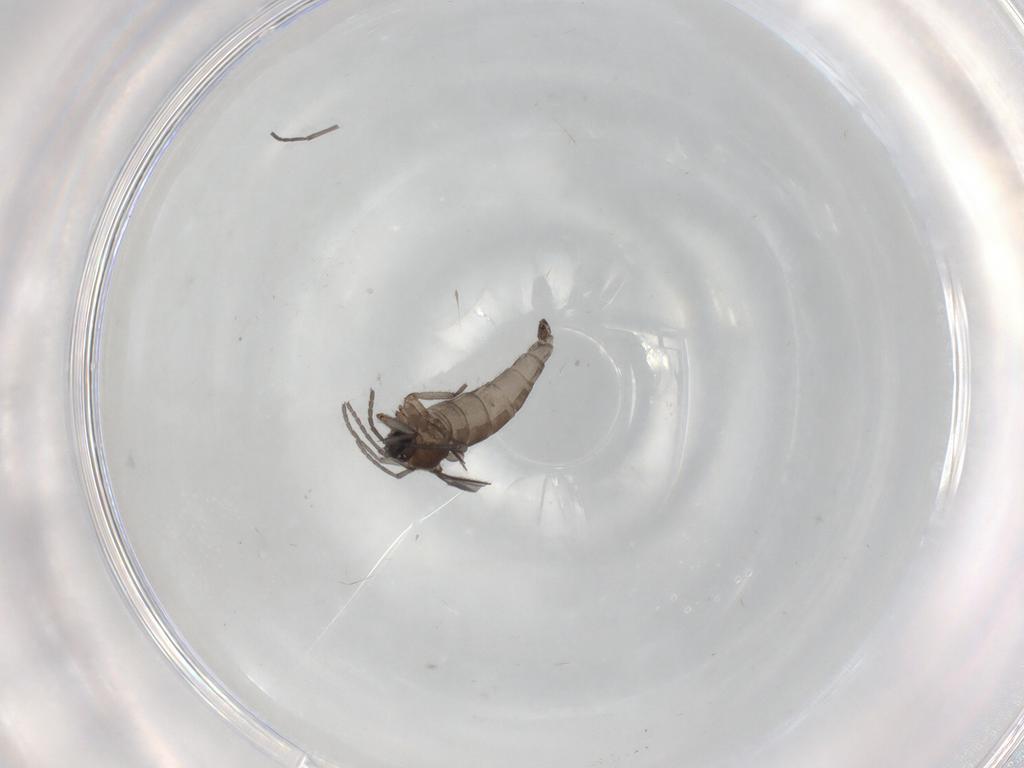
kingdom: Animalia
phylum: Arthropoda
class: Insecta
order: Diptera
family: Sciaridae
